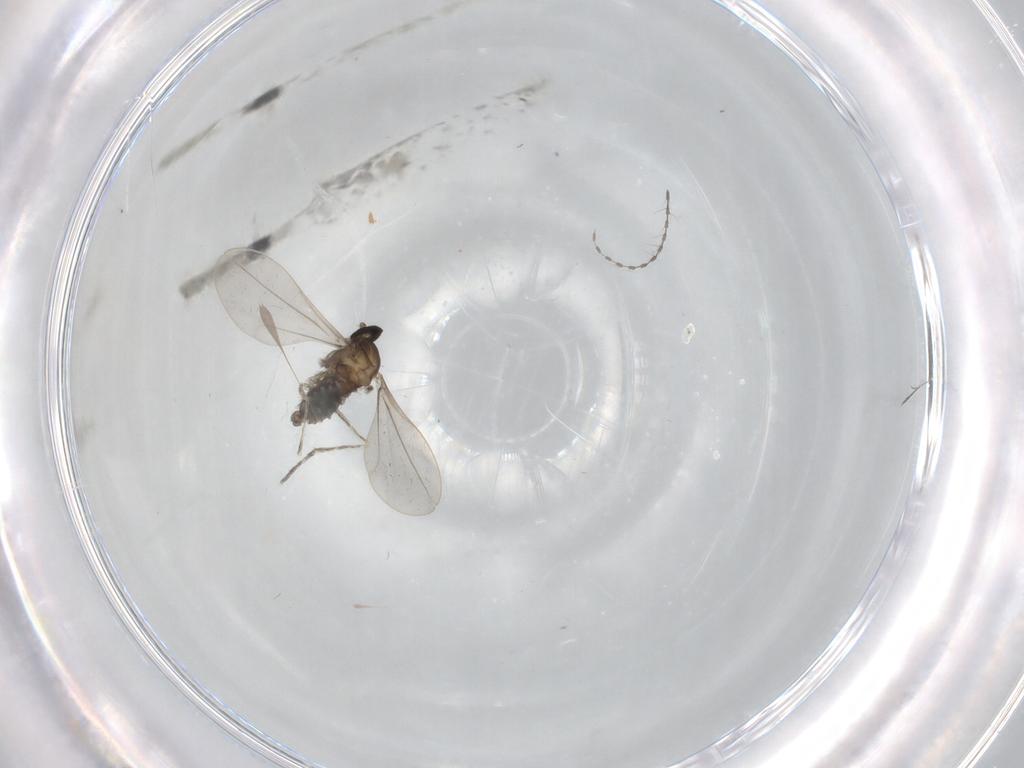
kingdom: Animalia
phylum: Arthropoda
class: Insecta
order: Diptera
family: Cecidomyiidae
